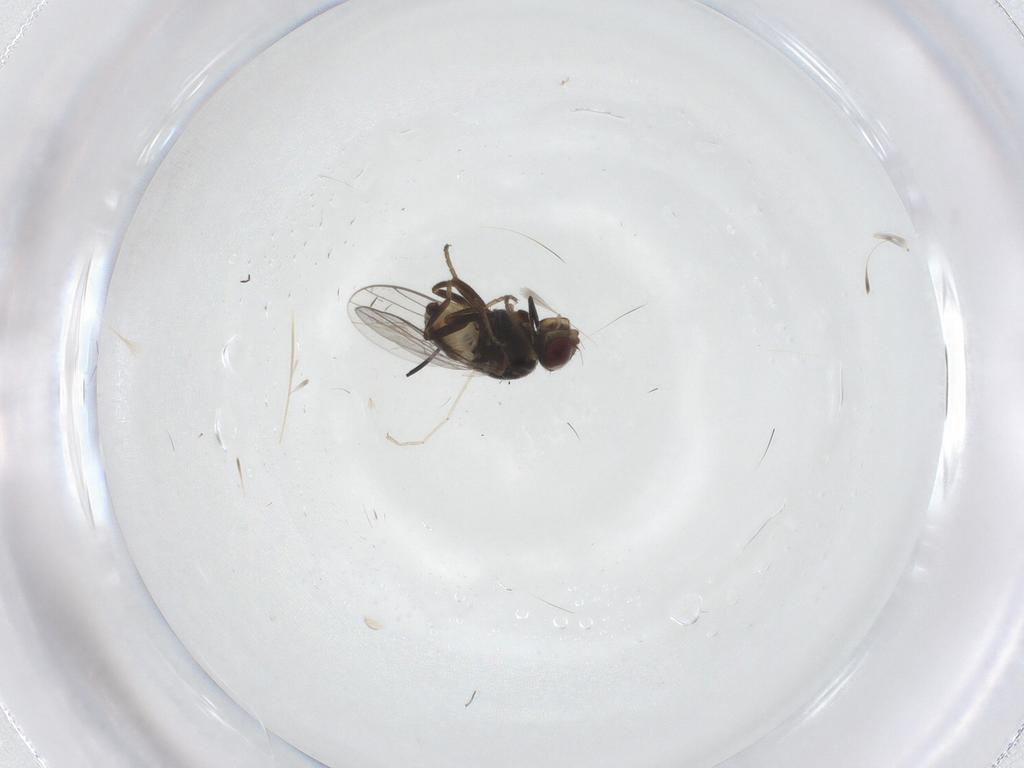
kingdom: Animalia
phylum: Arthropoda
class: Insecta
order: Diptera
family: Chloropidae
